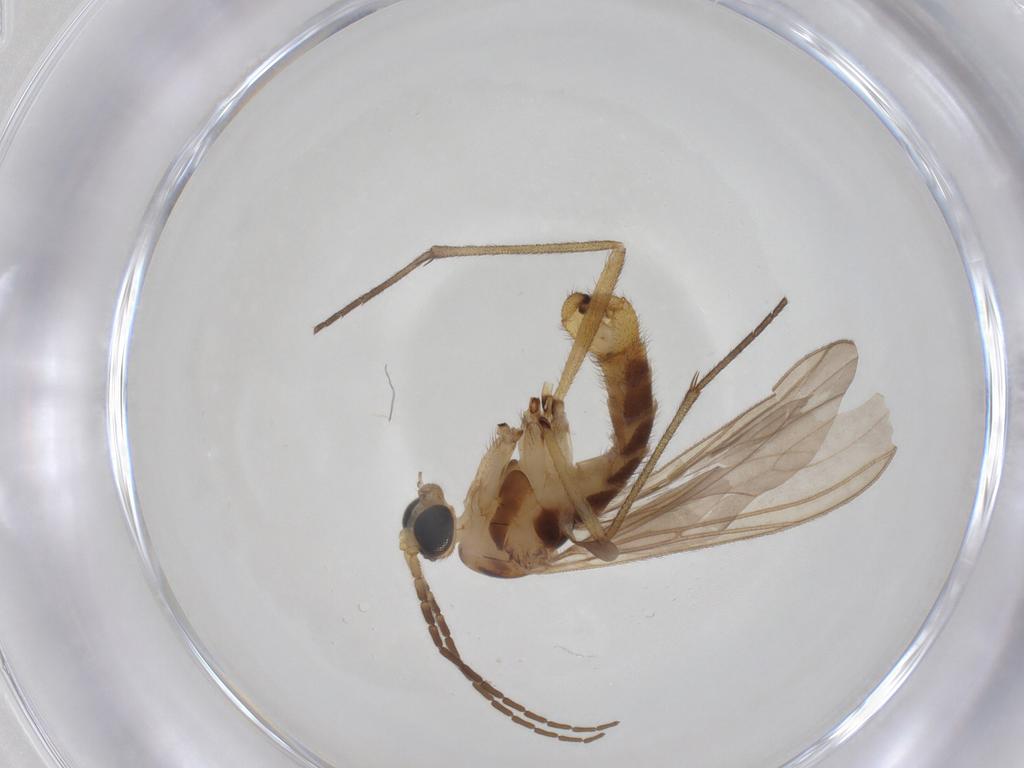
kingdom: Animalia
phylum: Arthropoda
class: Insecta
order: Diptera
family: Sciaridae
